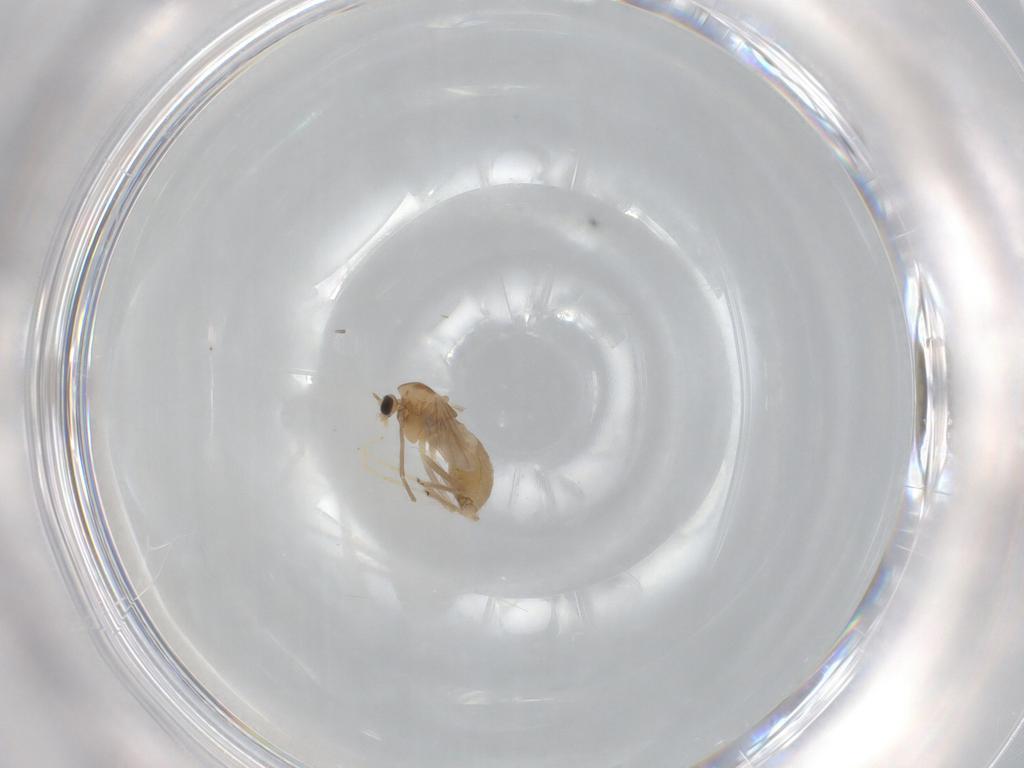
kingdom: Animalia
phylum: Arthropoda
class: Insecta
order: Diptera
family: Chironomidae
